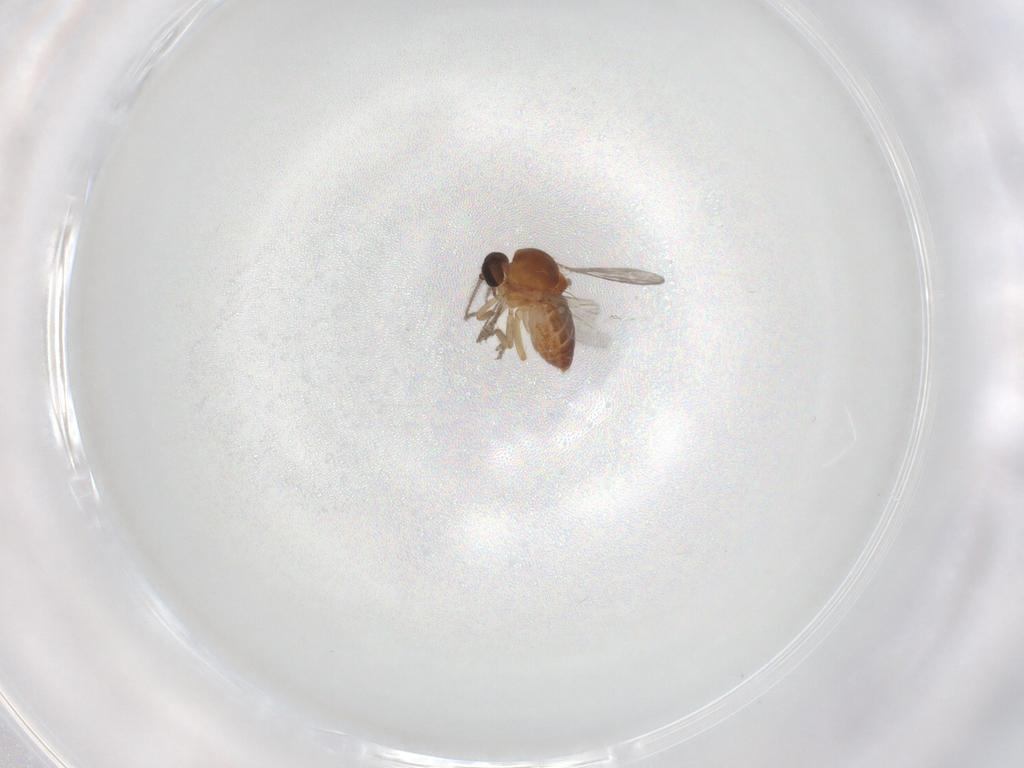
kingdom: Animalia
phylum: Arthropoda
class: Insecta
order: Diptera
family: Ceratopogonidae
